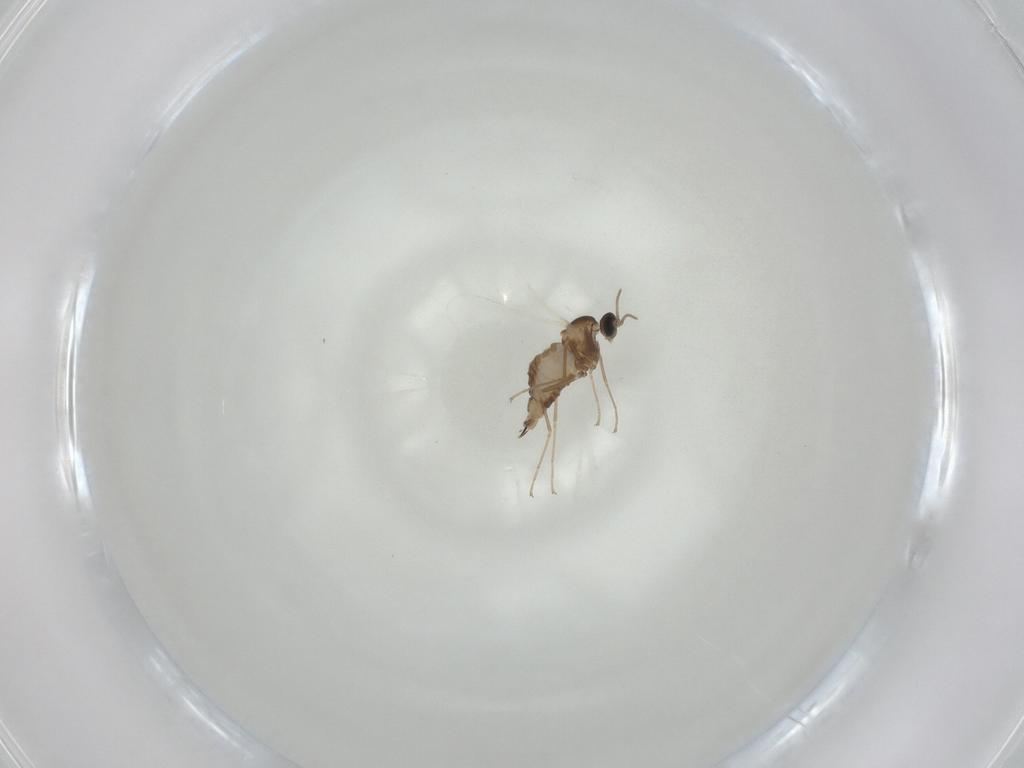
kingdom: Animalia
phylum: Arthropoda
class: Insecta
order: Diptera
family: Cecidomyiidae
